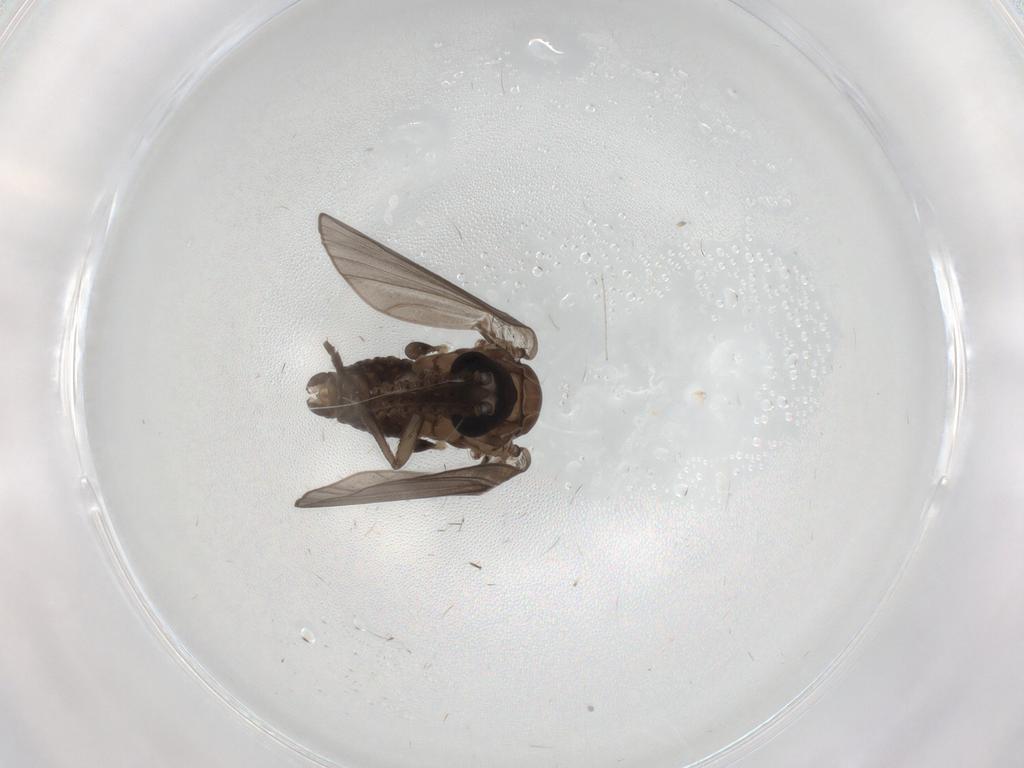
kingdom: Animalia
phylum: Arthropoda
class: Insecta
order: Diptera
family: Phoridae
